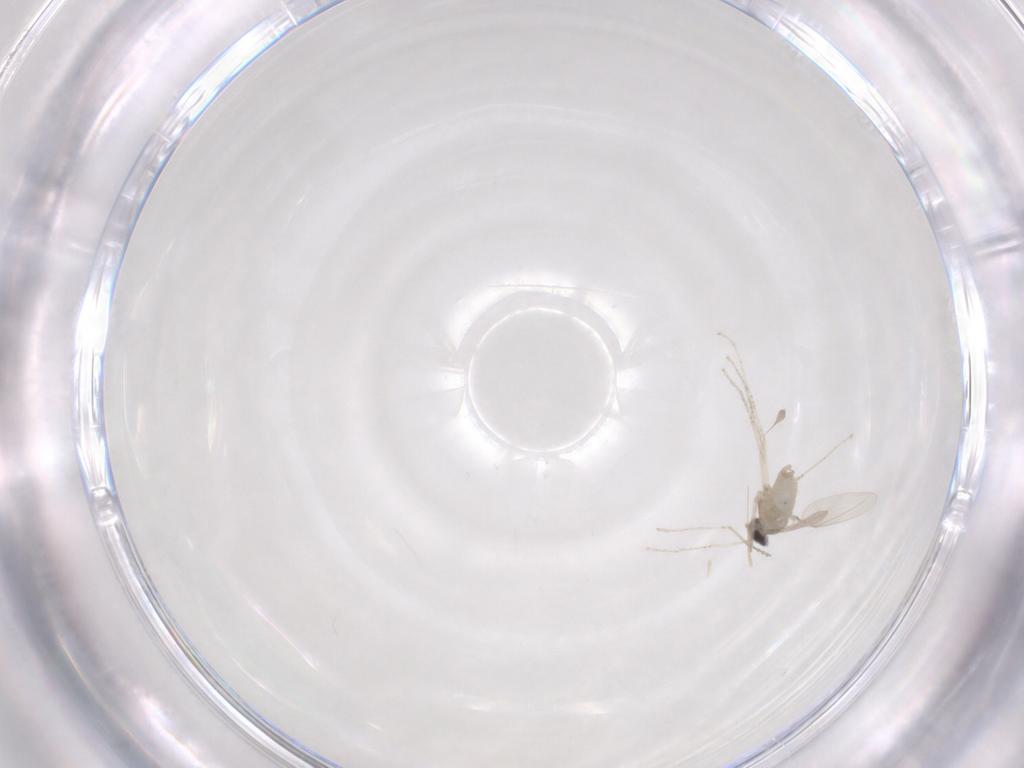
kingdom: Animalia
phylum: Arthropoda
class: Insecta
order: Diptera
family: Cecidomyiidae
